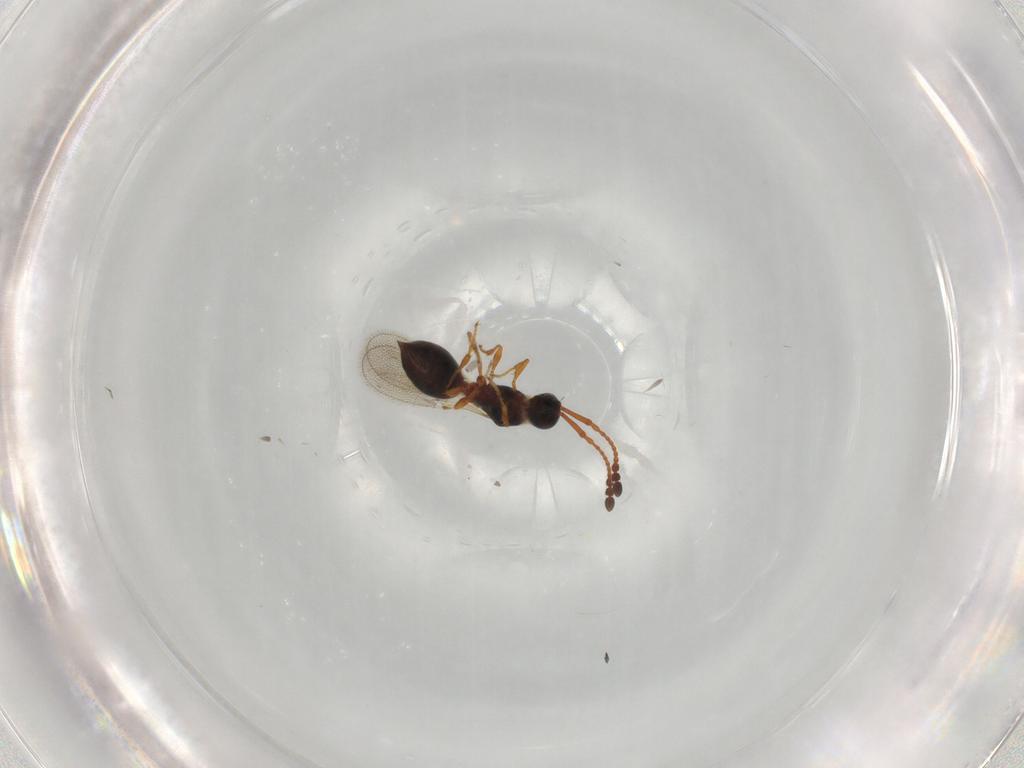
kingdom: Animalia
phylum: Arthropoda
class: Insecta
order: Hymenoptera
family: Diapriidae
